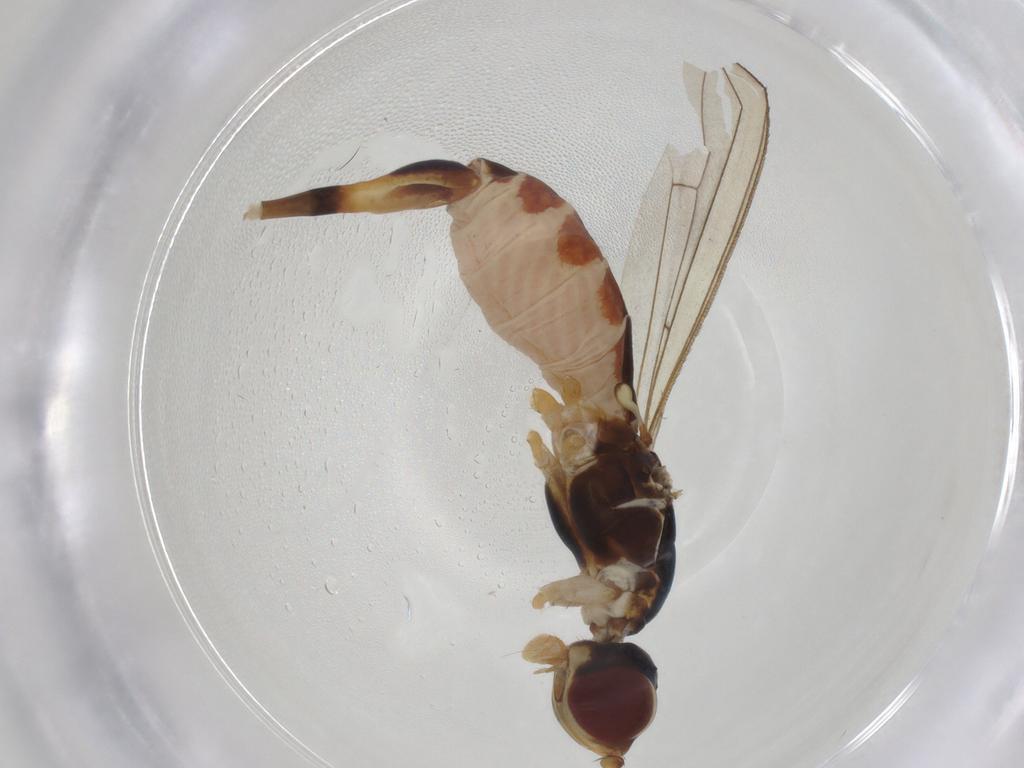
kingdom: Animalia
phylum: Arthropoda
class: Insecta
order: Diptera
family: Micropezidae
